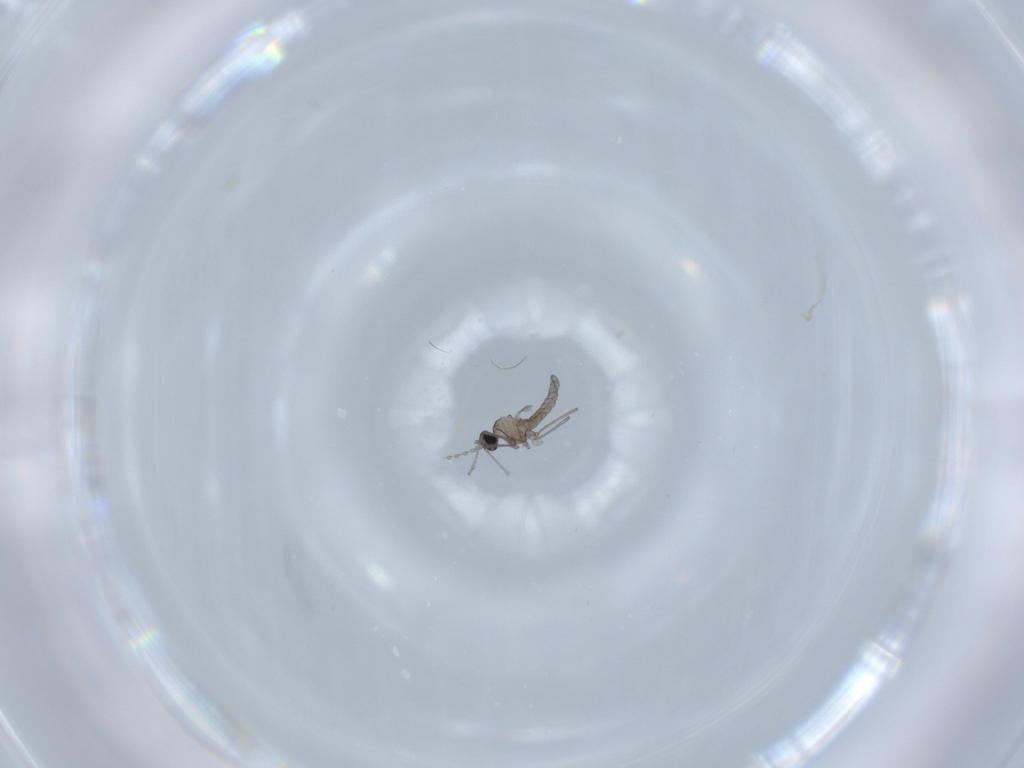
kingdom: Animalia
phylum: Arthropoda
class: Insecta
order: Diptera
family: Cecidomyiidae
